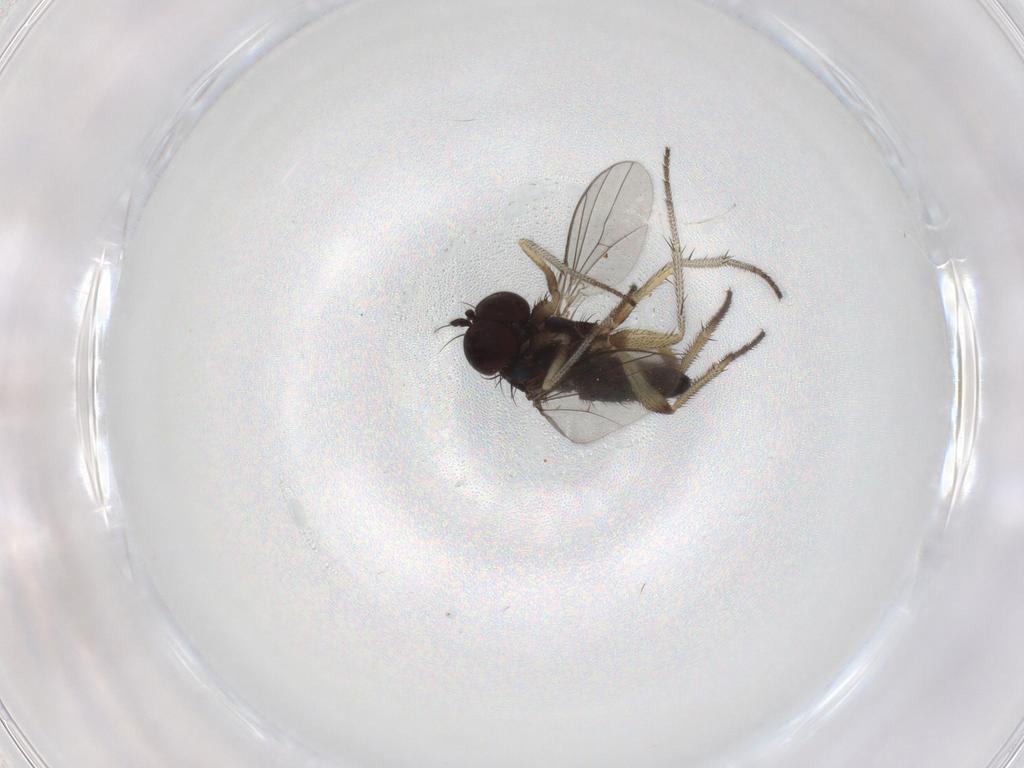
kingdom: Animalia
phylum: Arthropoda
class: Insecta
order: Diptera
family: Dolichopodidae
